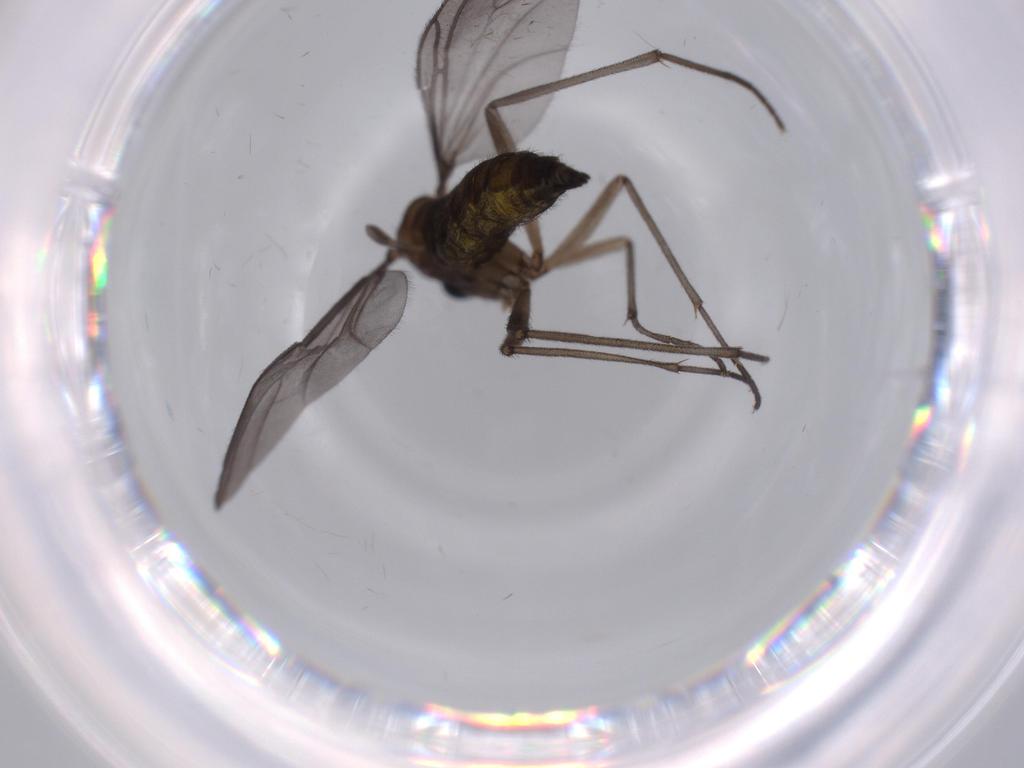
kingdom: Animalia
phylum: Arthropoda
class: Insecta
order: Diptera
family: Sciaridae
